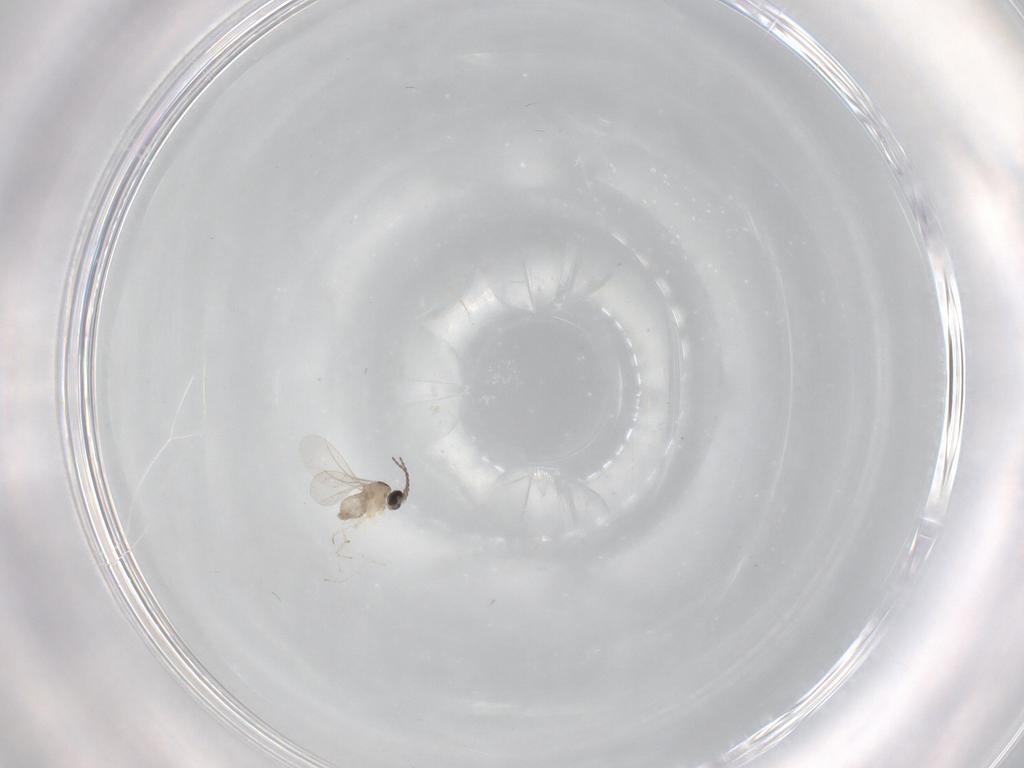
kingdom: Animalia
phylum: Arthropoda
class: Insecta
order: Diptera
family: Cecidomyiidae
